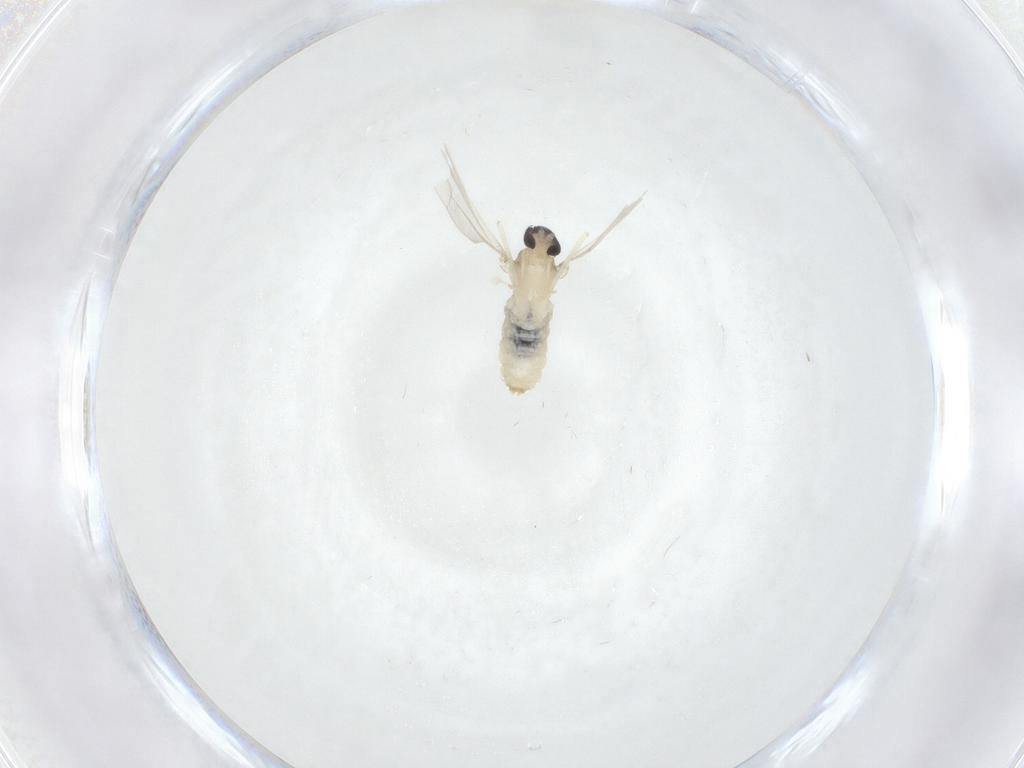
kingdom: Animalia
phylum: Arthropoda
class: Insecta
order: Diptera
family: Cecidomyiidae
